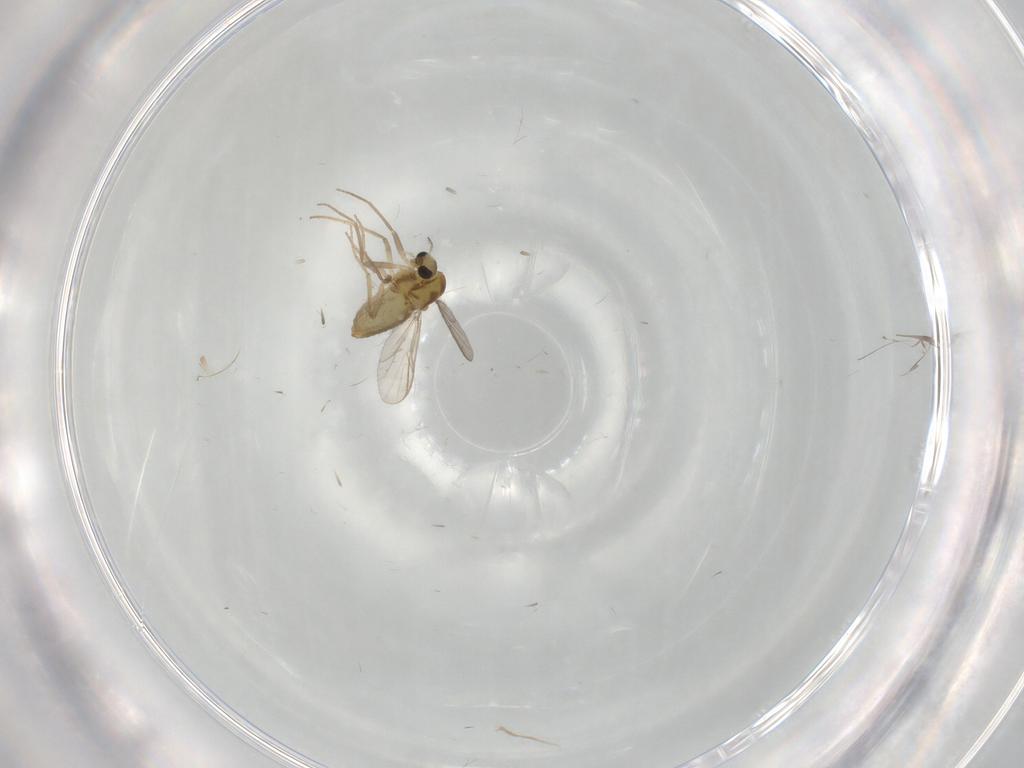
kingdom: Animalia
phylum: Arthropoda
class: Insecta
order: Diptera
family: Chironomidae
